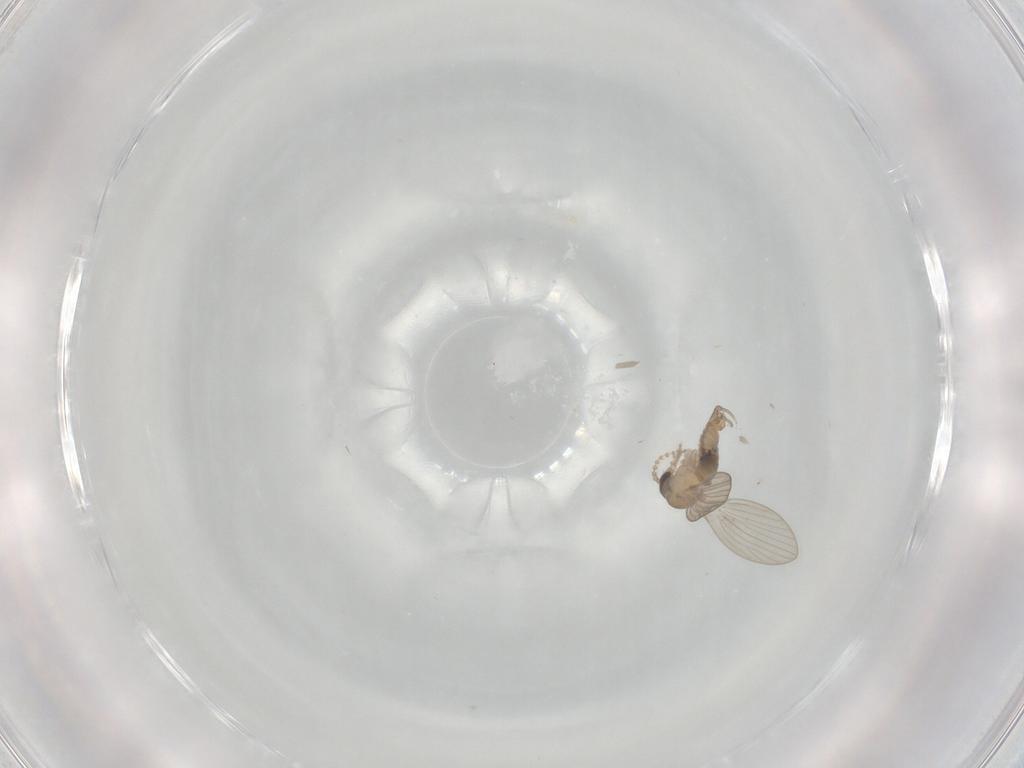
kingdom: Animalia
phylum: Arthropoda
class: Insecta
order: Diptera
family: Psychodidae
